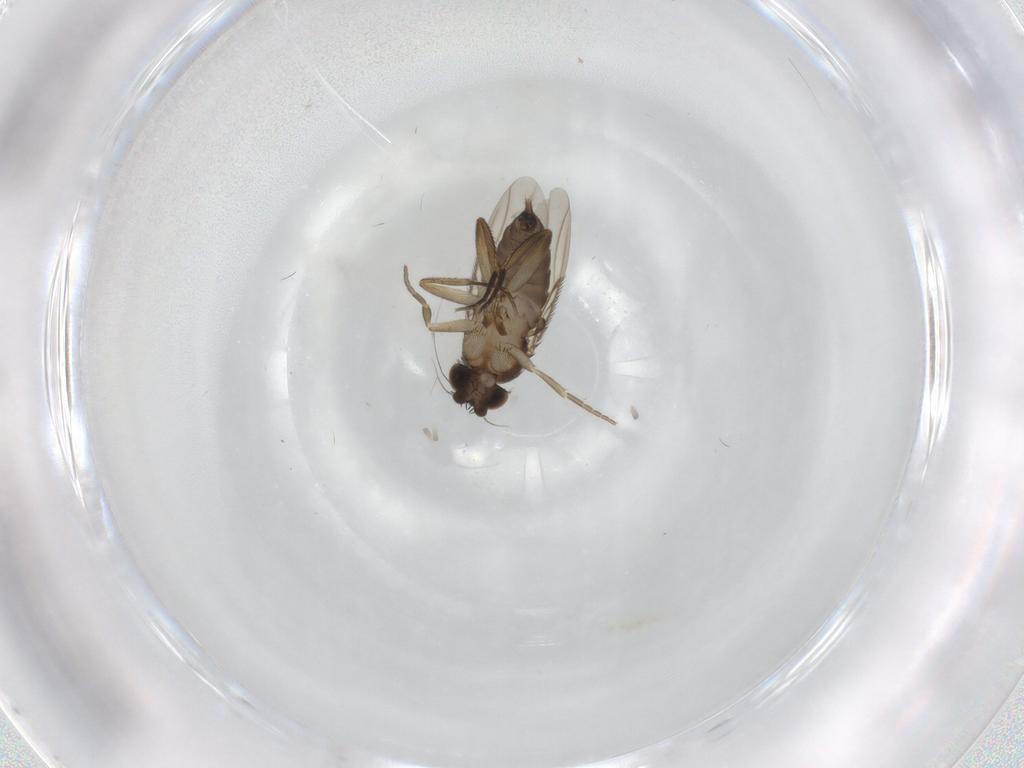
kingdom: Animalia
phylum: Arthropoda
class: Insecta
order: Diptera
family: Phoridae
